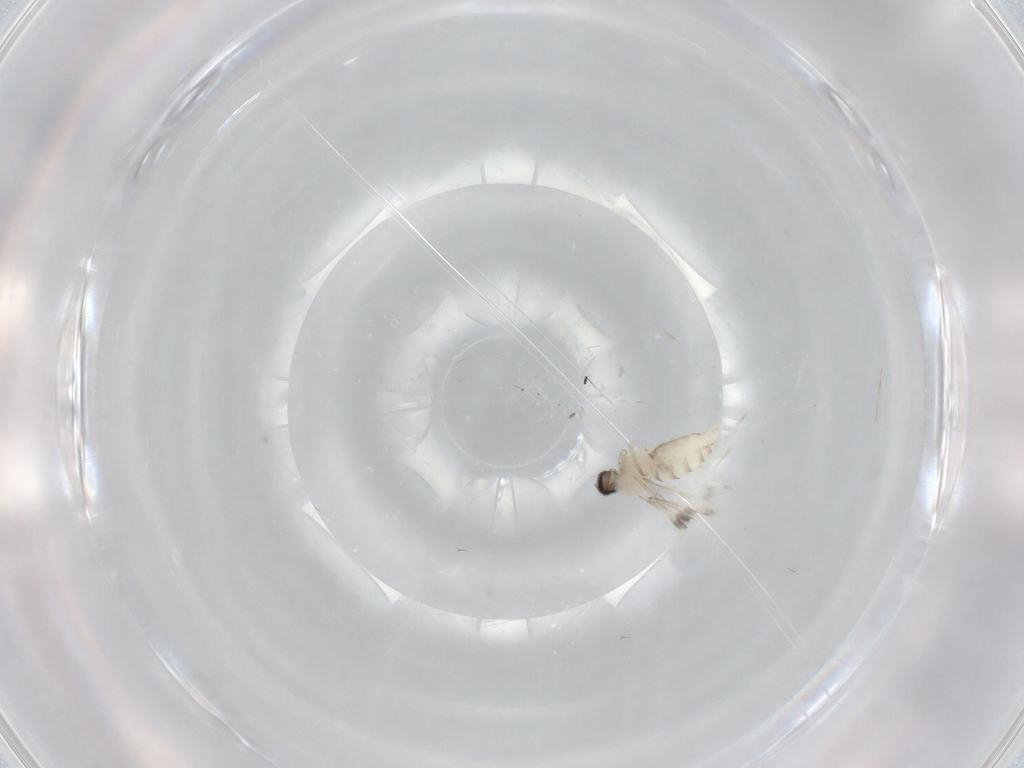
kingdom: Animalia
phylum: Arthropoda
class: Insecta
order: Diptera
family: Cecidomyiidae
